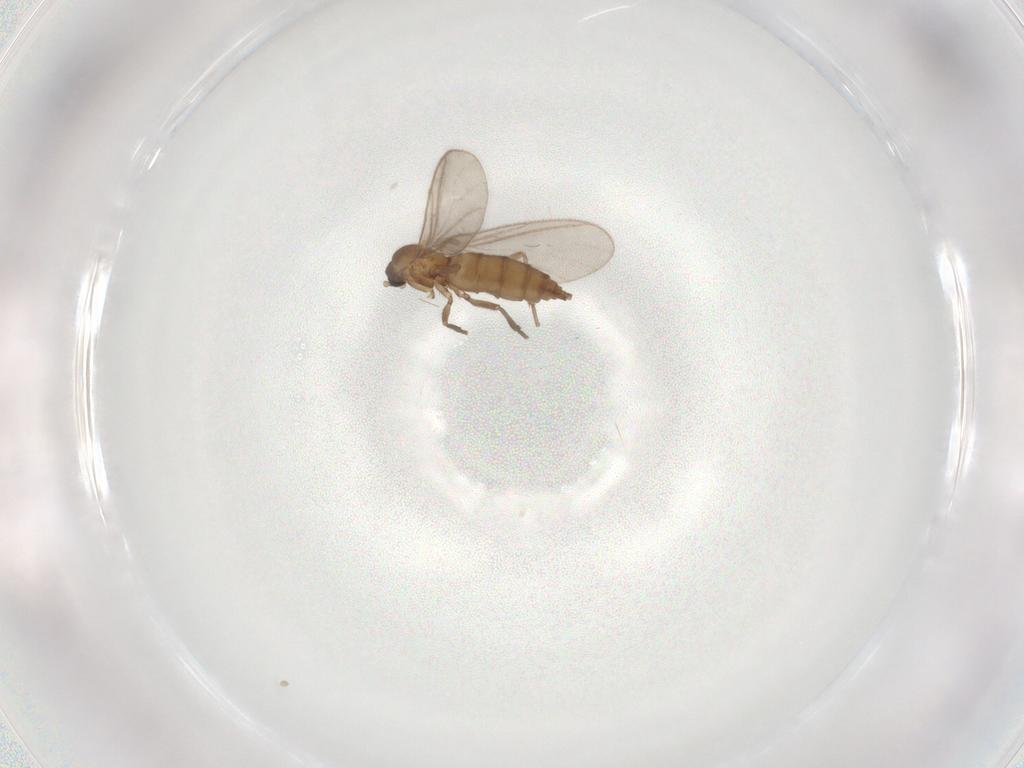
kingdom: Animalia
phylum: Arthropoda
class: Insecta
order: Diptera
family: Sciaridae
